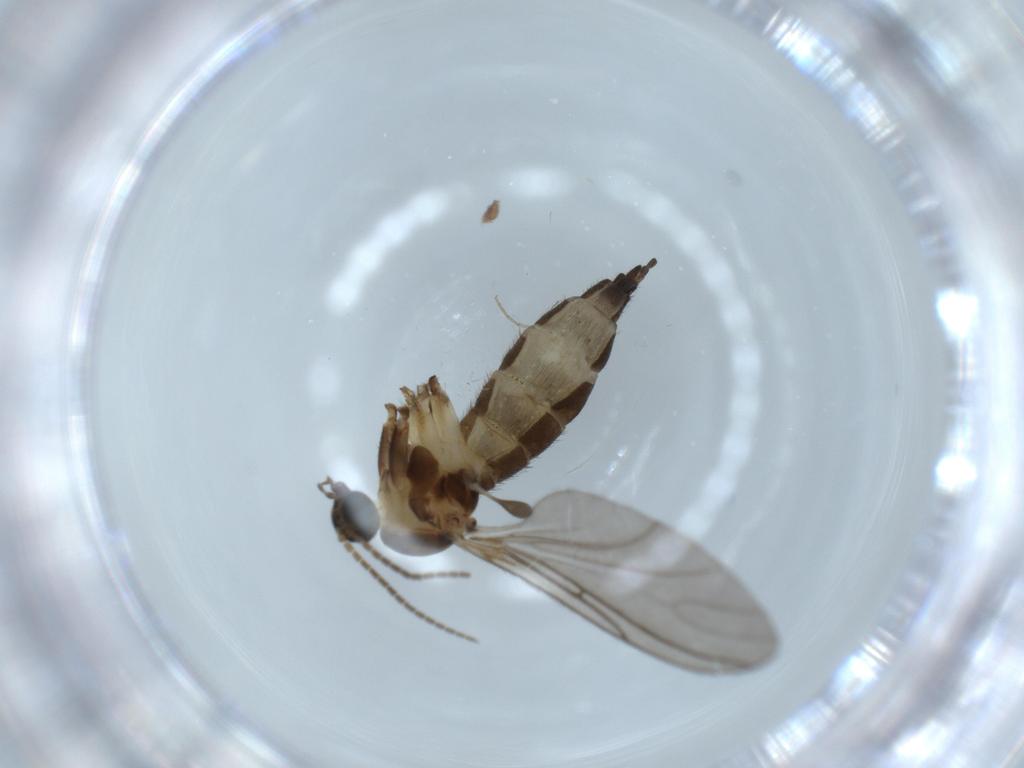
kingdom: Animalia
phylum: Arthropoda
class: Insecta
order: Diptera
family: Sciaridae
